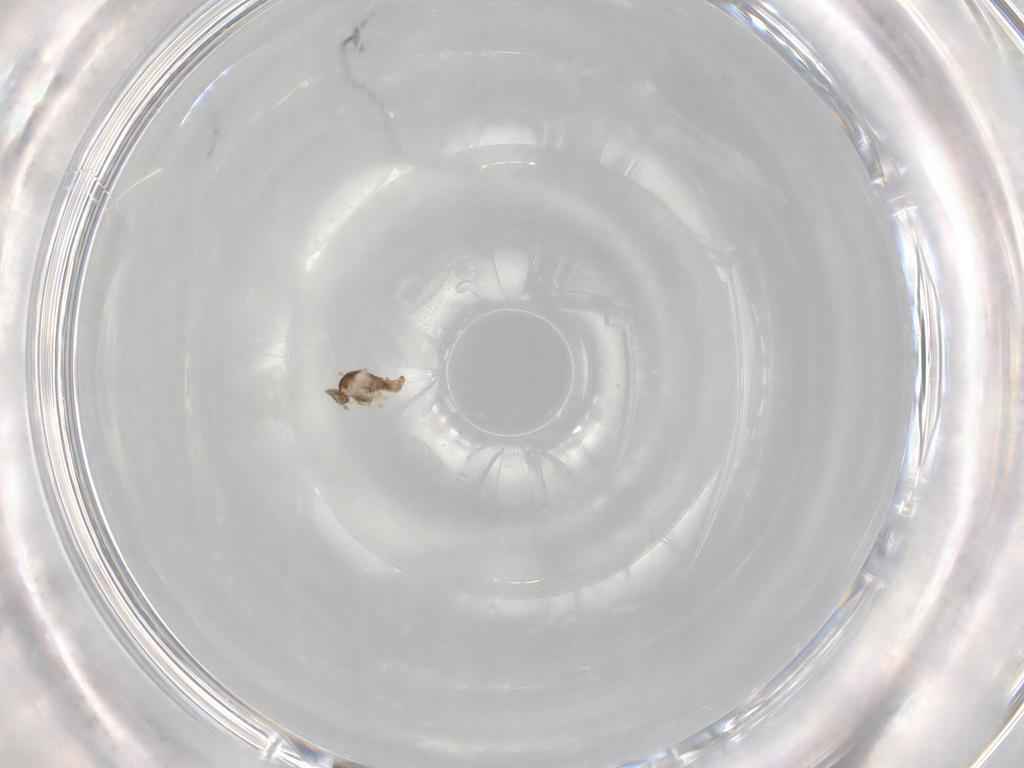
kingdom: Animalia
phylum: Arthropoda
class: Insecta
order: Diptera
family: Cecidomyiidae
